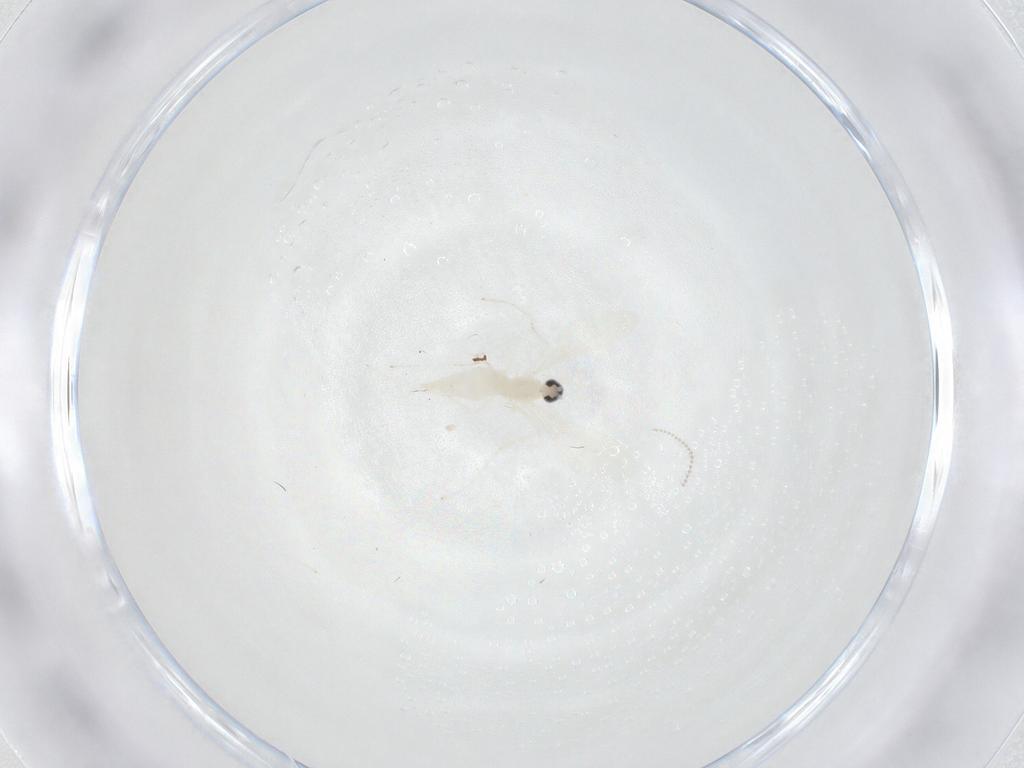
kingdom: Animalia
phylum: Arthropoda
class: Insecta
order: Diptera
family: Cecidomyiidae
